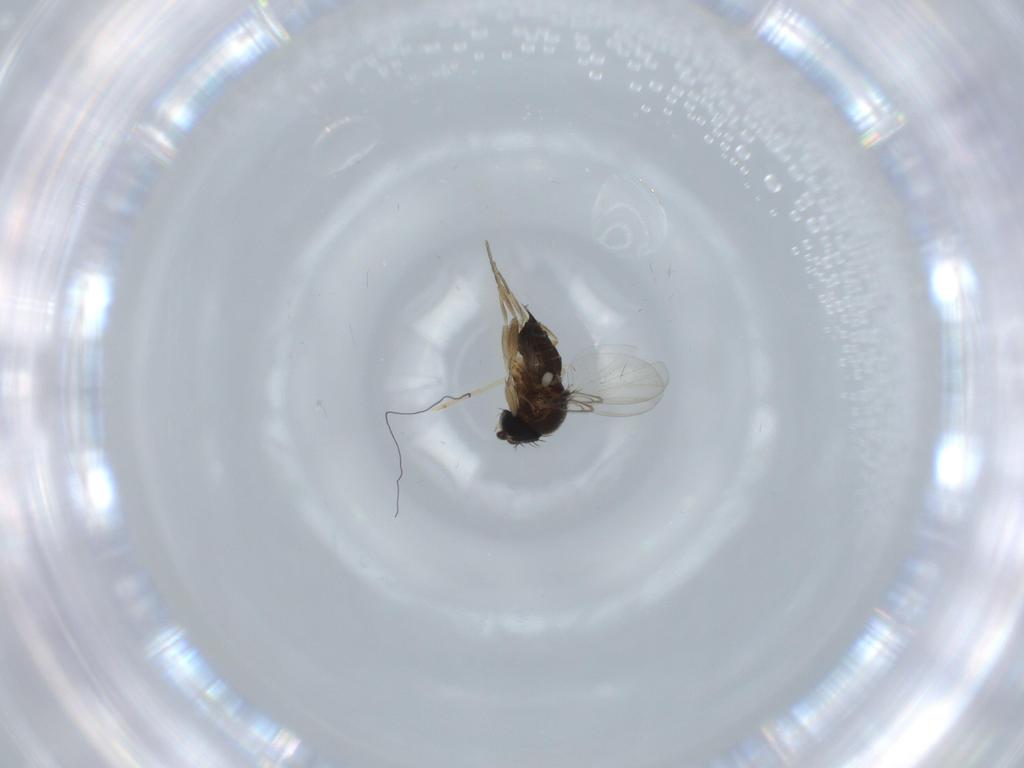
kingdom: Animalia
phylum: Arthropoda
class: Insecta
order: Diptera
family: Phoridae
